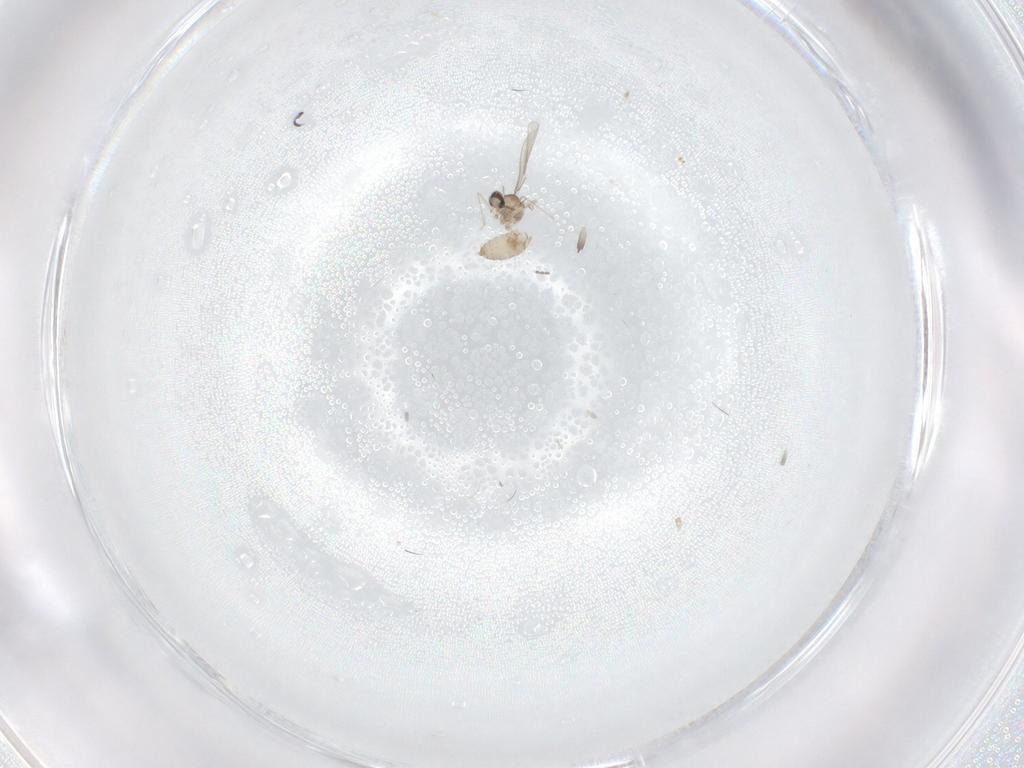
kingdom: Animalia
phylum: Arthropoda
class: Insecta
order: Diptera
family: Cecidomyiidae
